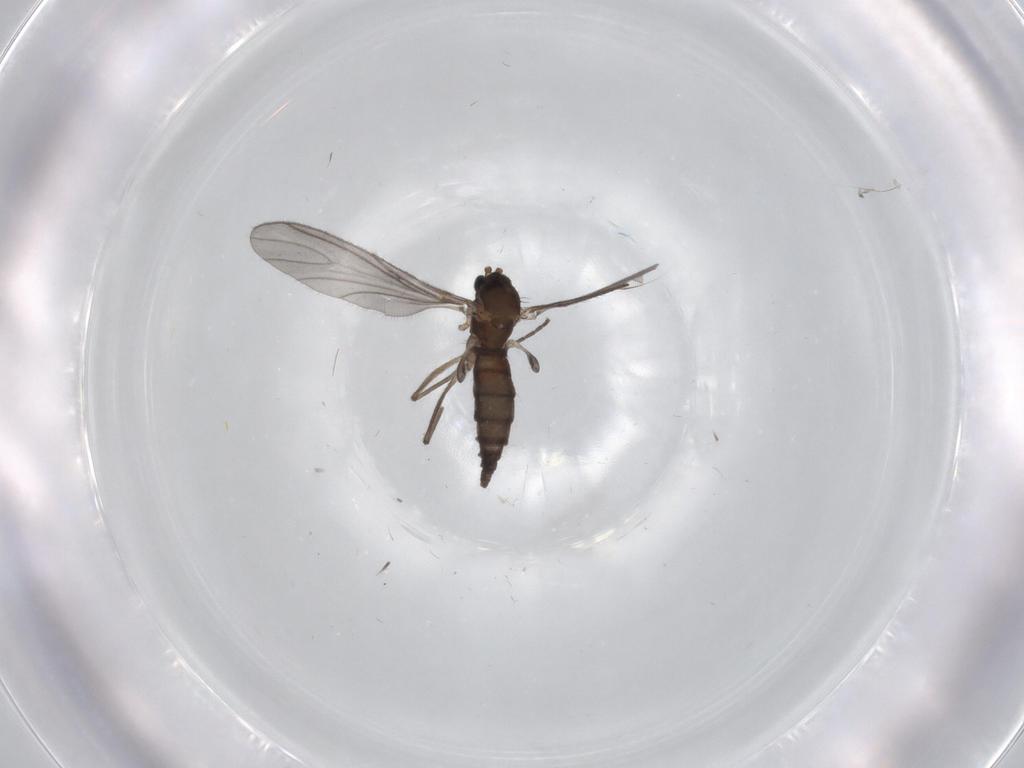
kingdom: Animalia
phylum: Arthropoda
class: Insecta
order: Diptera
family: Sciaridae
